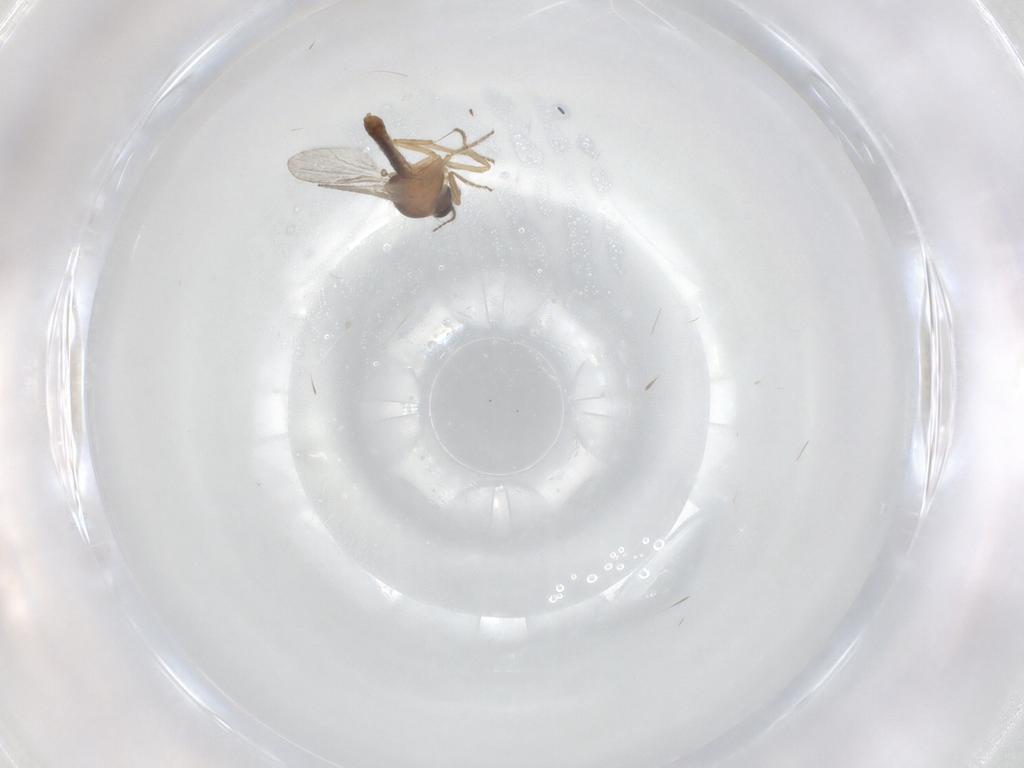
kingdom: Animalia
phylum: Arthropoda
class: Insecta
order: Diptera
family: Ceratopogonidae
